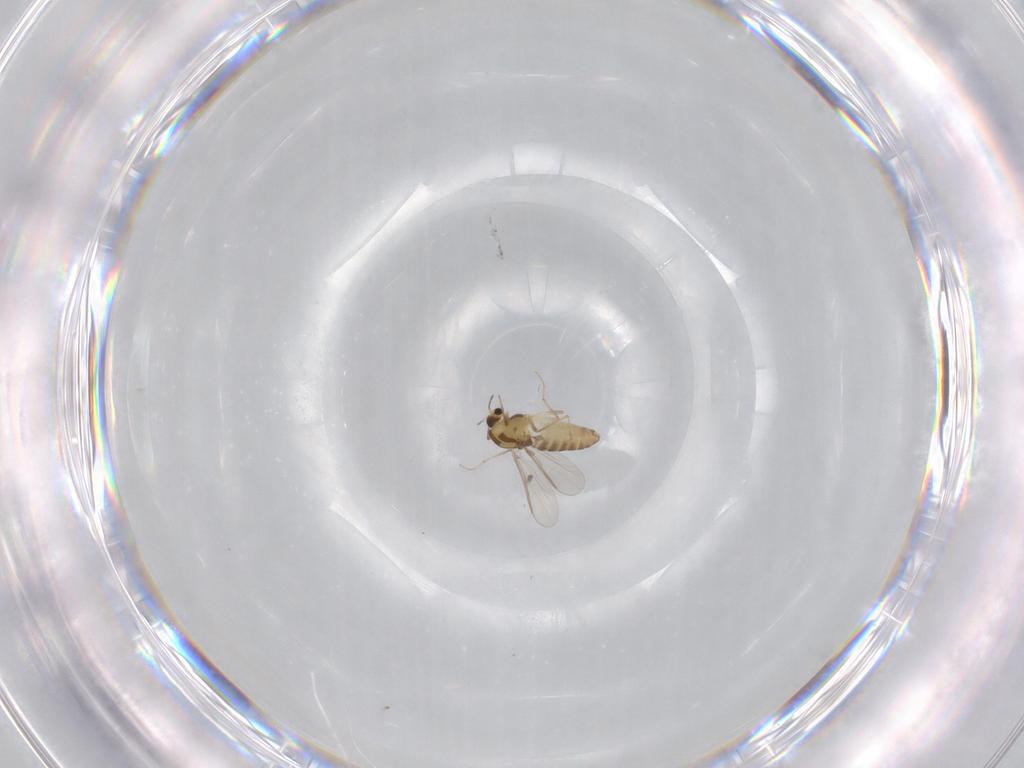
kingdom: Animalia
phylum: Arthropoda
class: Insecta
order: Diptera
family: Chironomidae
